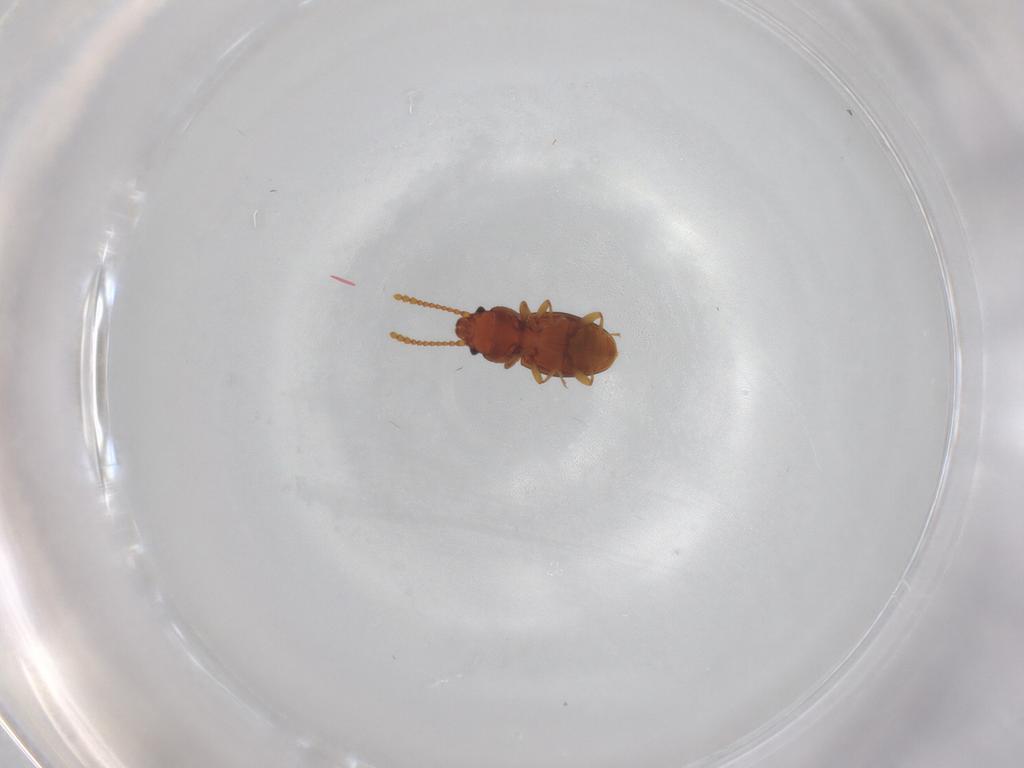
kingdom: Animalia
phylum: Arthropoda
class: Insecta
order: Coleoptera
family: Laemophloeidae
